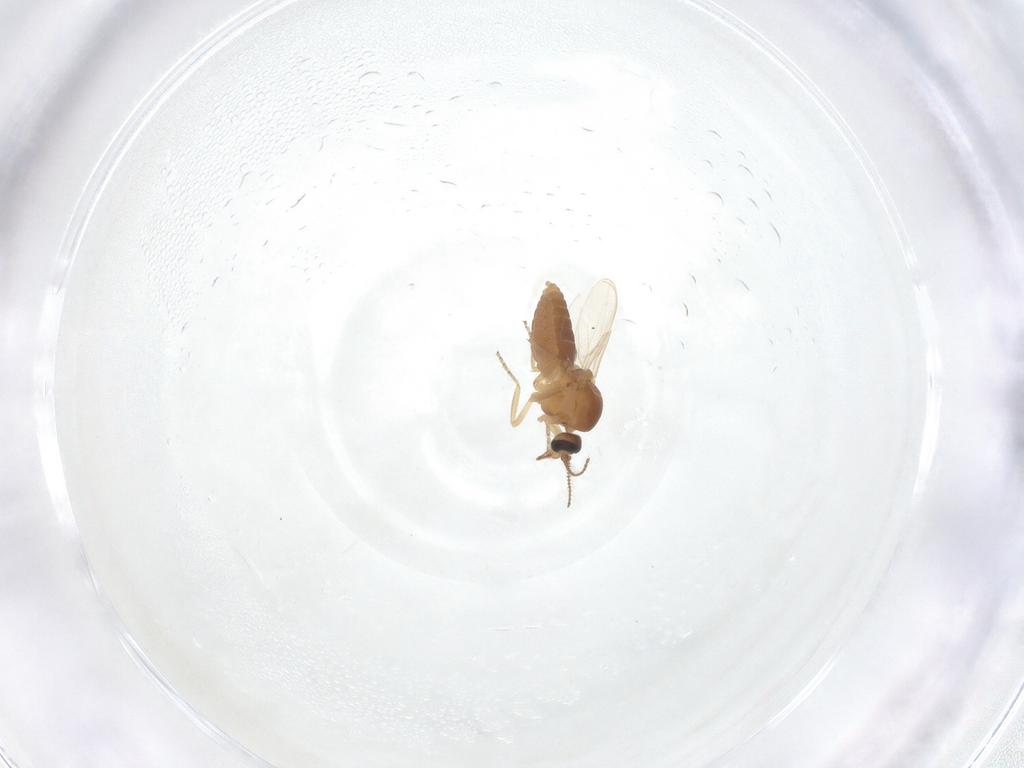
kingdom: Animalia
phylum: Arthropoda
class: Insecta
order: Diptera
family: Ceratopogonidae
